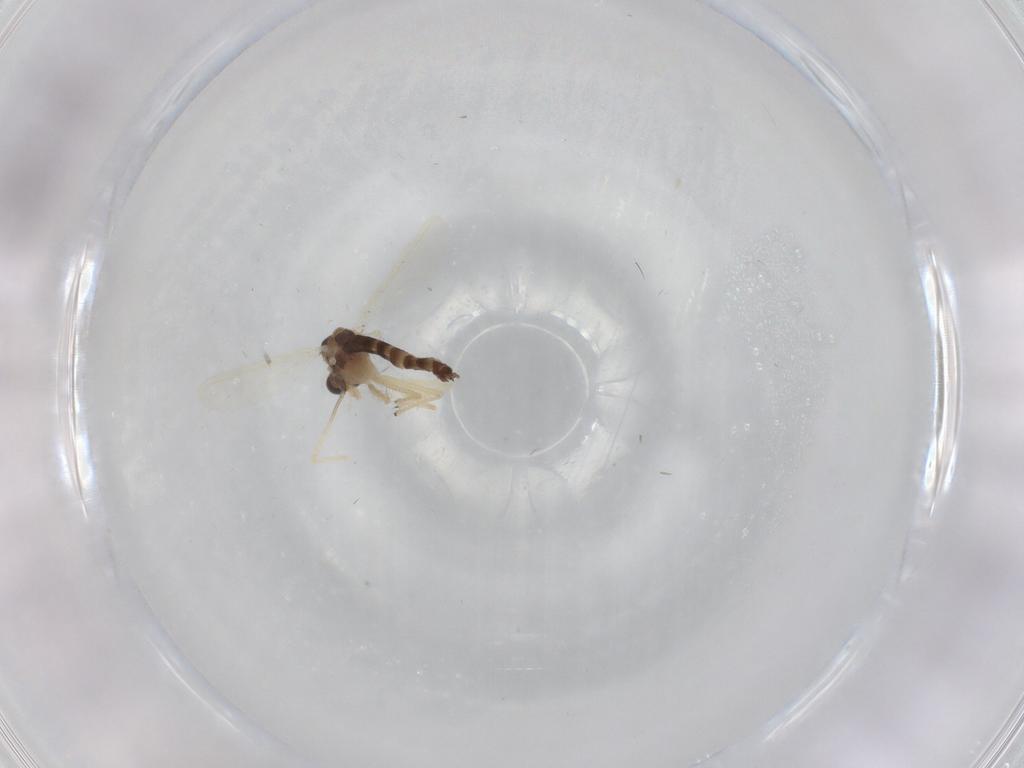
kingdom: Animalia
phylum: Arthropoda
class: Insecta
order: Diptera
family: Chironomidae
